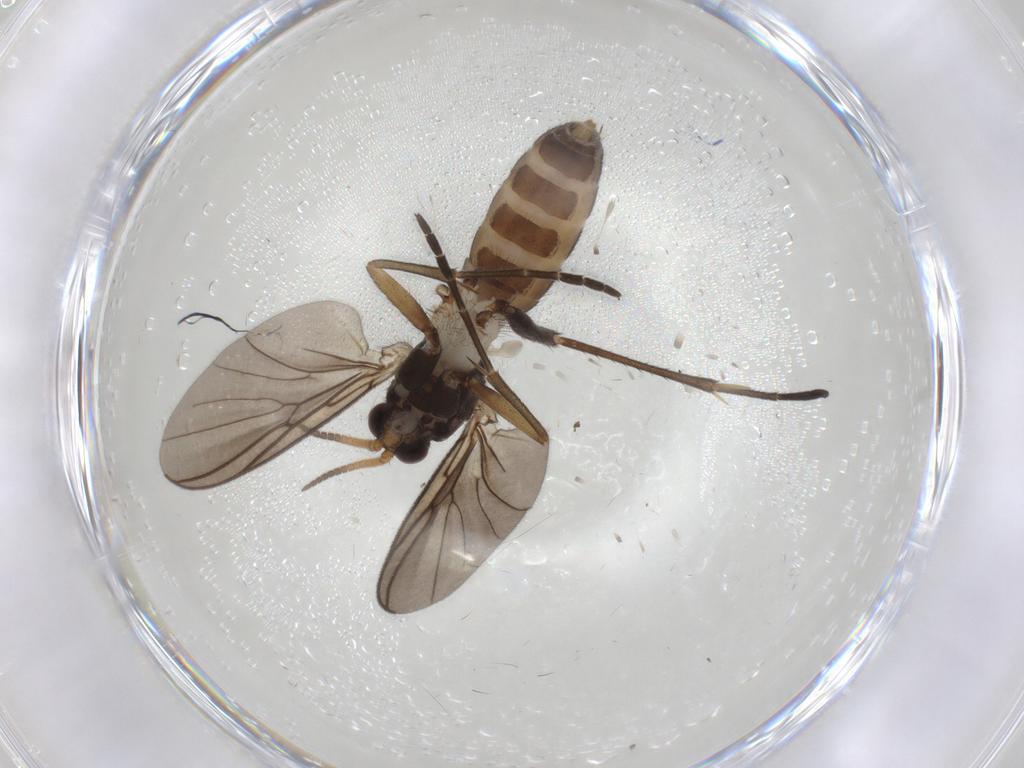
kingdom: Animalia
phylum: Arthropoda
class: Insecta
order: Diptera
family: Mycetophilidae
